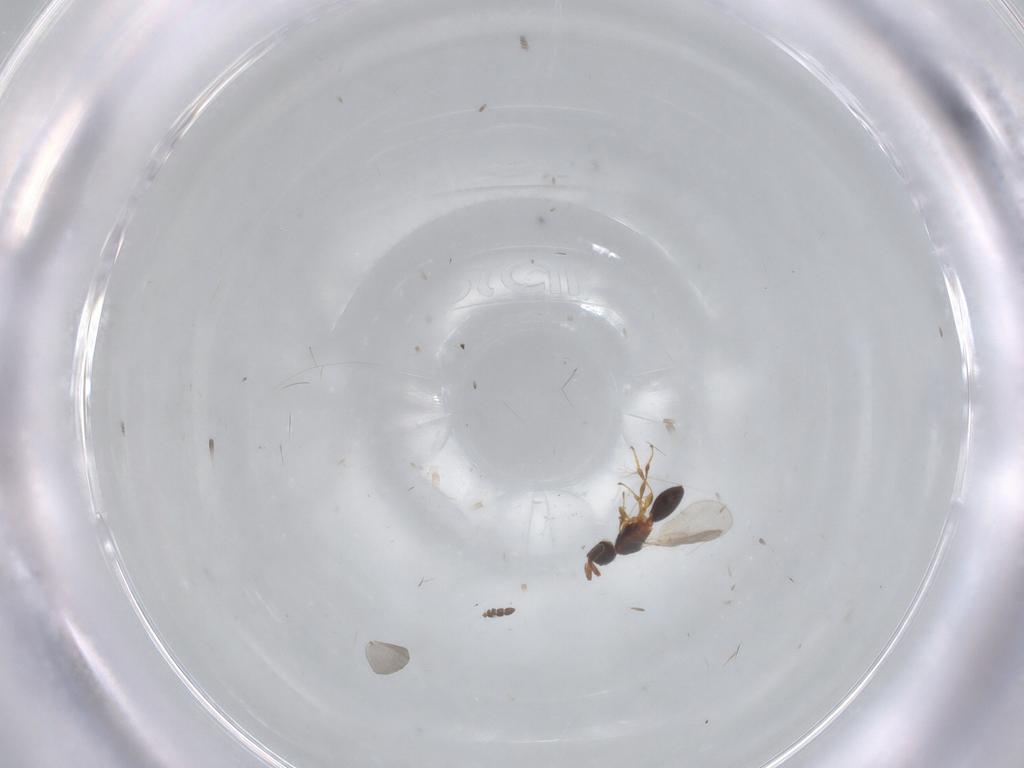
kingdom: Animalia
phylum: Arthropoda
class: Insecta
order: Hymenoptera
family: Diapriidae
